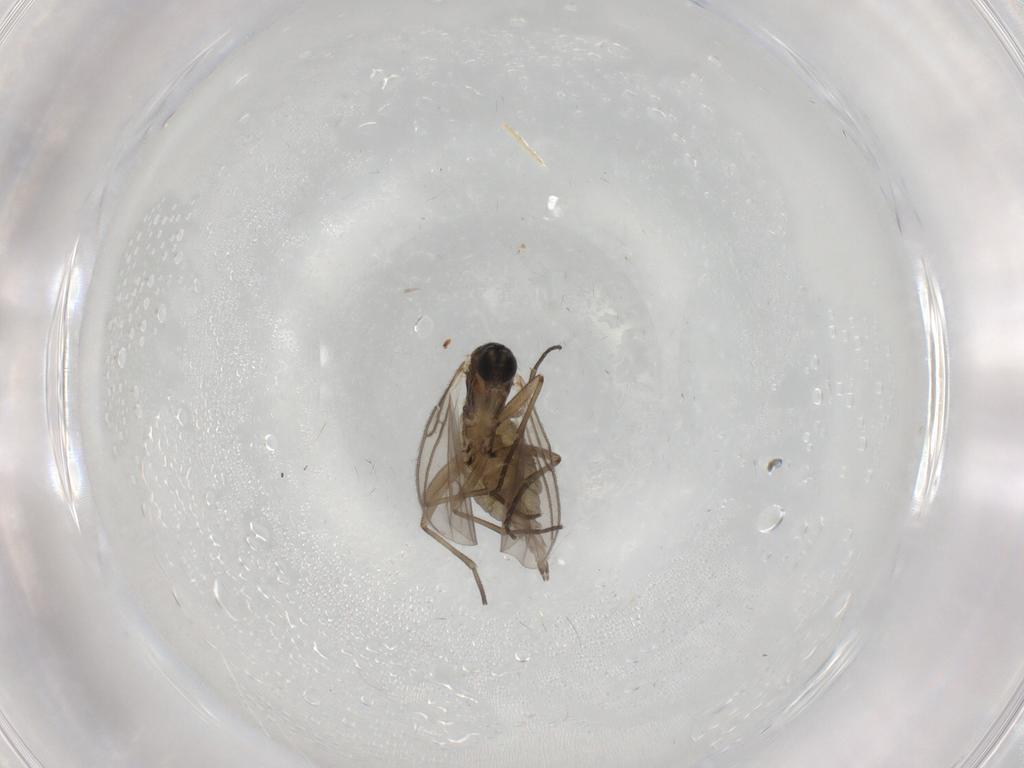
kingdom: Animalia
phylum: Arthropoda
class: Insecta
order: Diptera
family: Sciaridae
